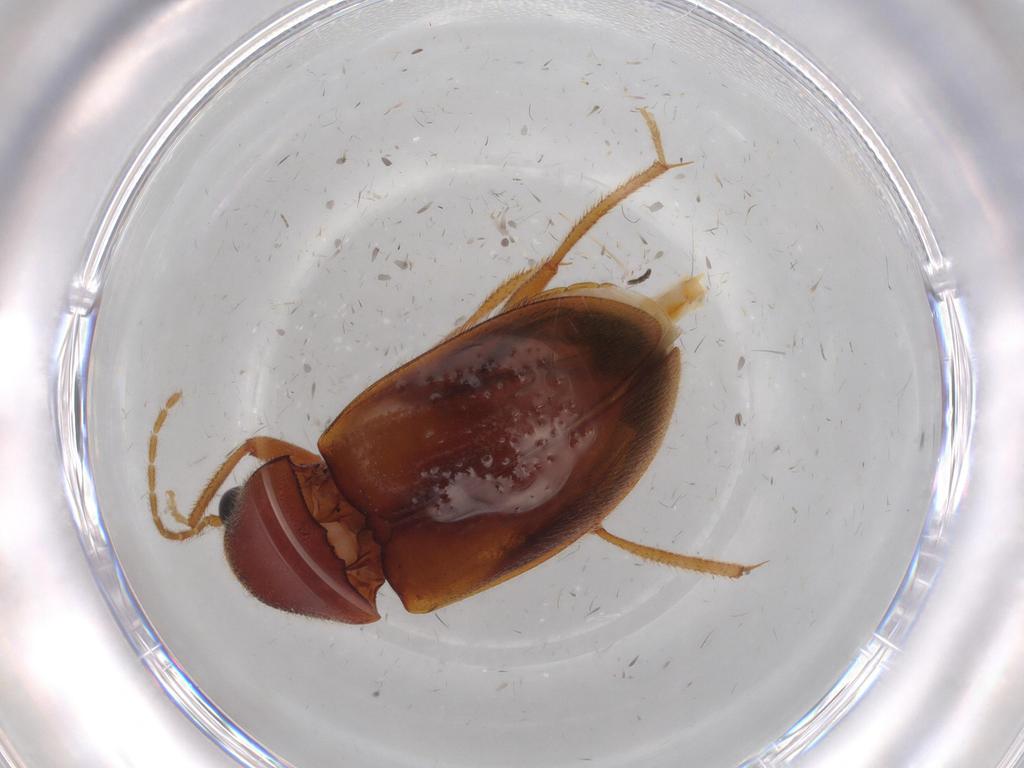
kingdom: Animalia
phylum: Arthropoda
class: Insecta
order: Coleoptera
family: Ptilodactylidae
